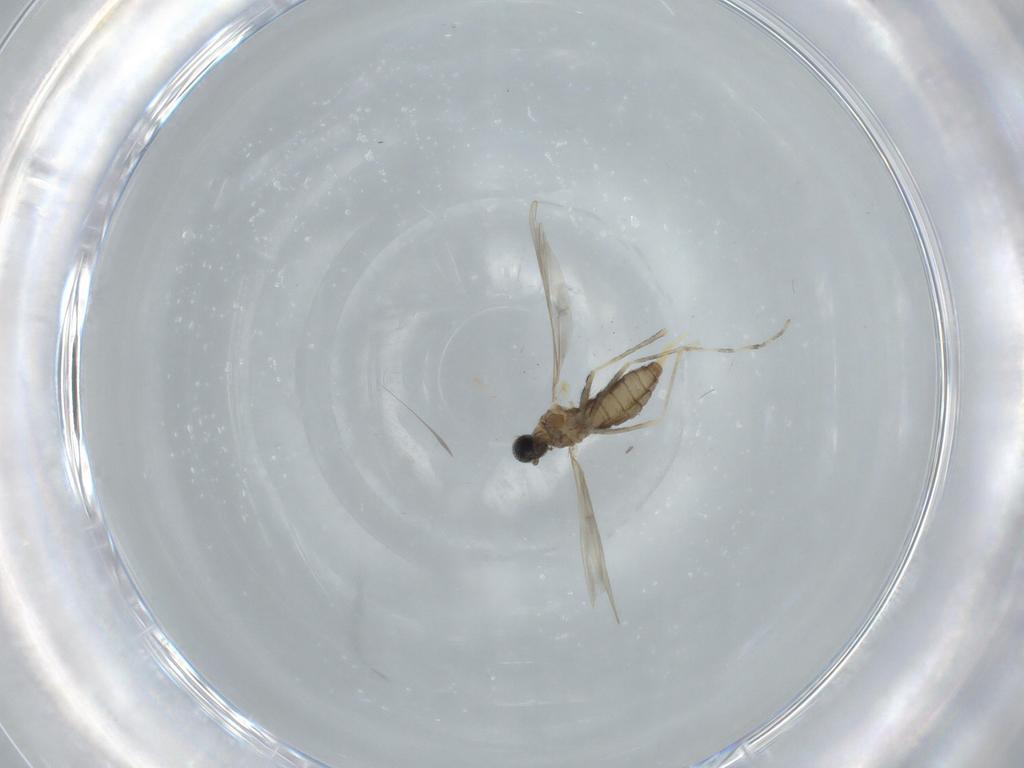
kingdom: Animalia
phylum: Arthropoda
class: Insecta
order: Diptera
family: Cecidomyiidae
